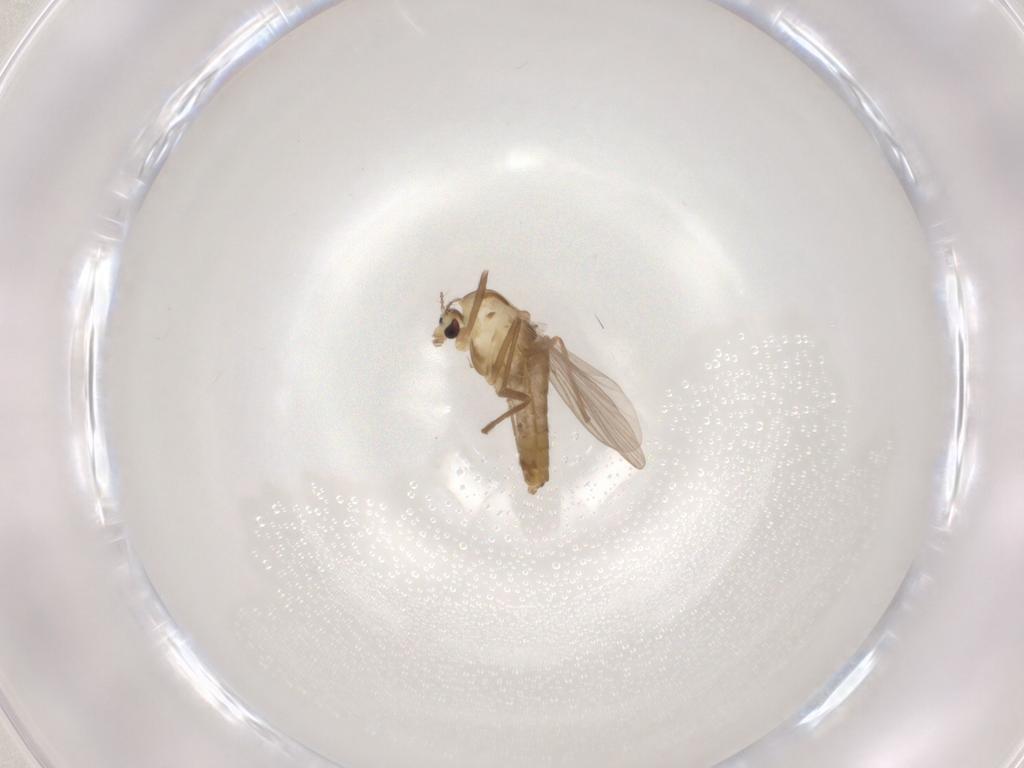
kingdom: Animalia
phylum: Arthropoda
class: Insecta
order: Diptera
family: Chironomidae
